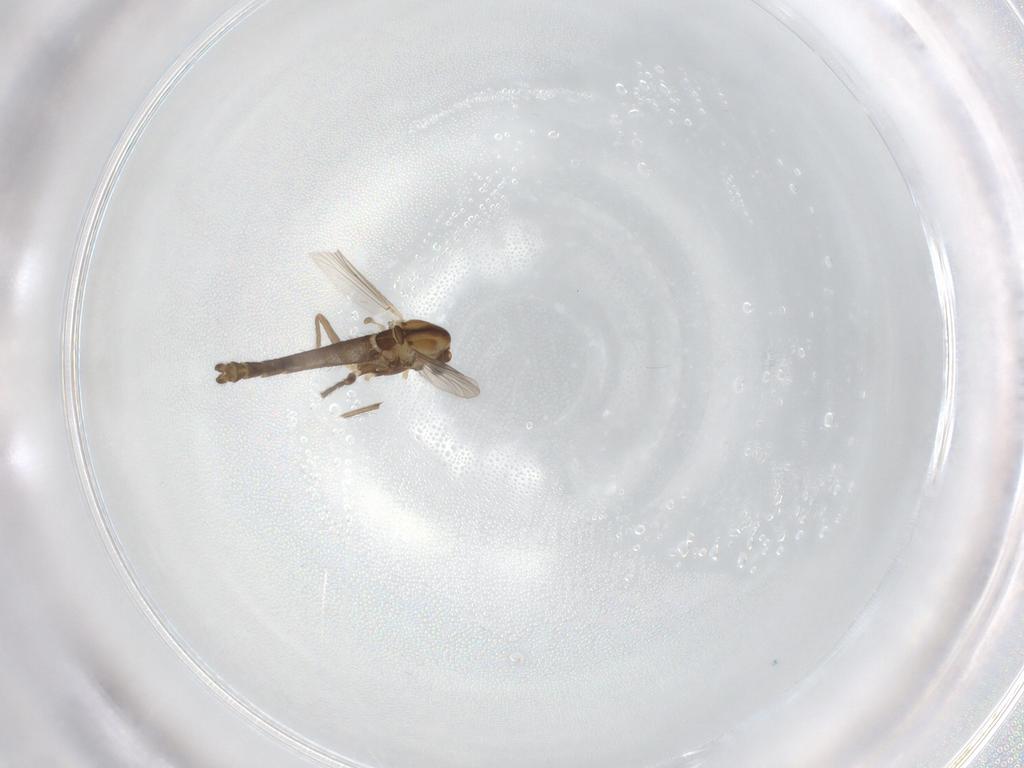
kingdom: Animalia
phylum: Arthropoda
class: Insecta
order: Diptera
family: Chironomidae
